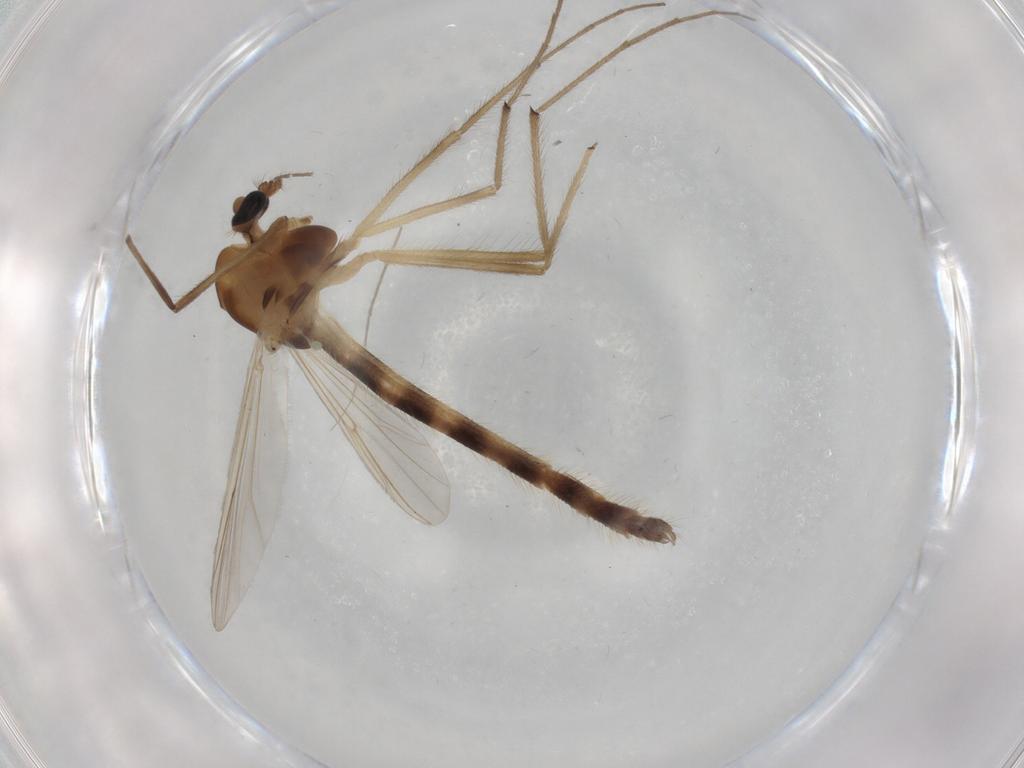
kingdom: Animalia
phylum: Arthropoda
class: Insecta
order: Diptera
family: Chironomidae
